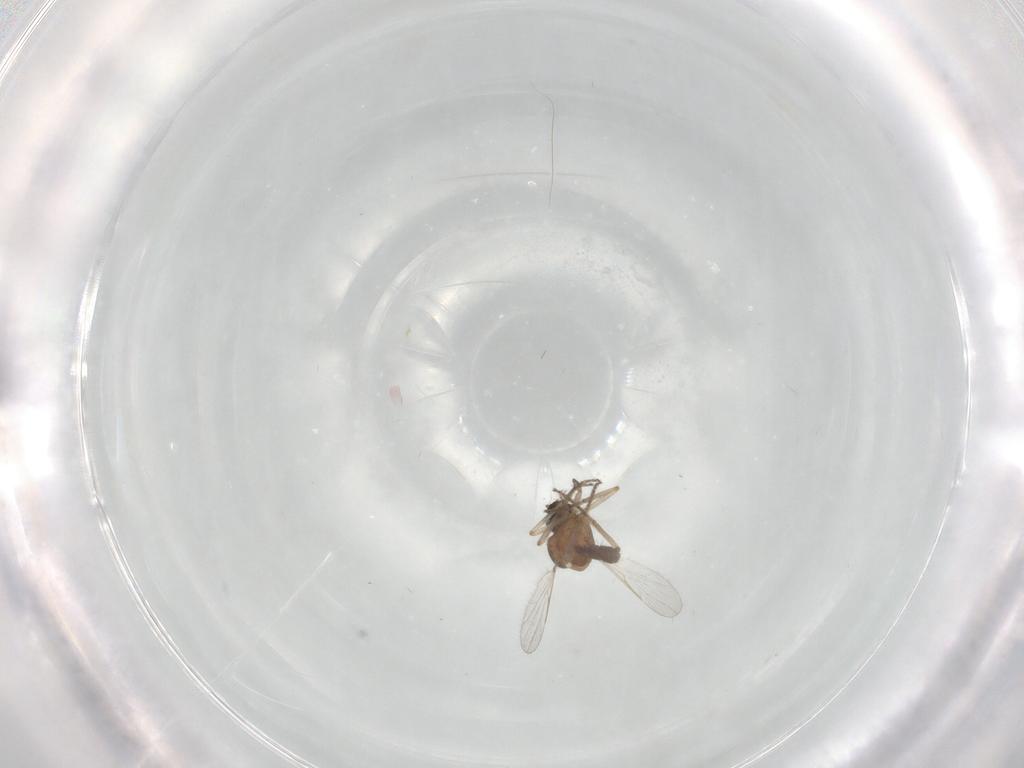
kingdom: Animalia
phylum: Arthropoda
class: Insecta
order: Diptera
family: Ceratopogonidae
